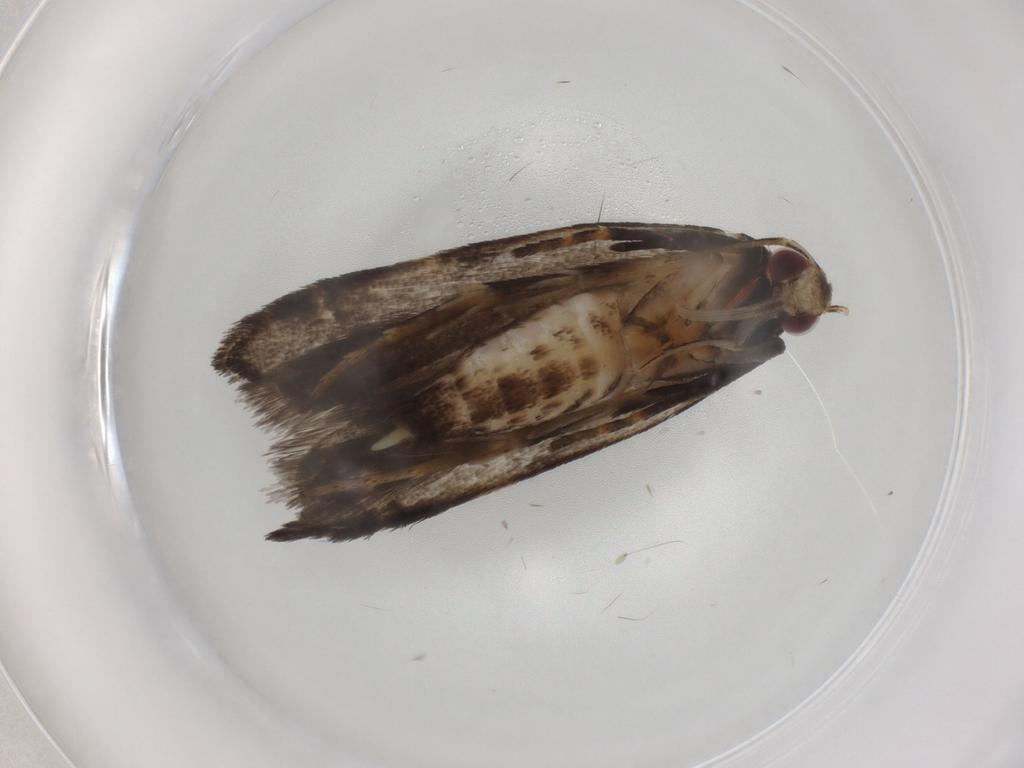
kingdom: Animalia
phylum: Arthropoda
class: Insecta
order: Lepidoptera
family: Gelechiidae
